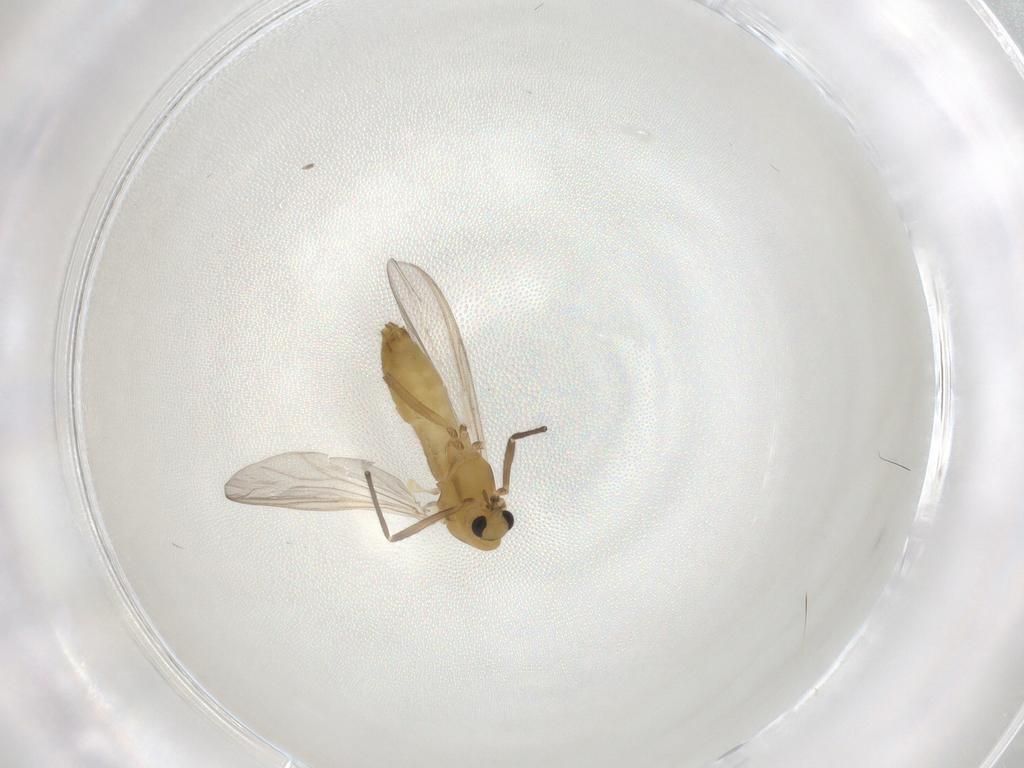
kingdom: Animalia
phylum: Arthropoda
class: Insecta
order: Diptera
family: Chironomidae
